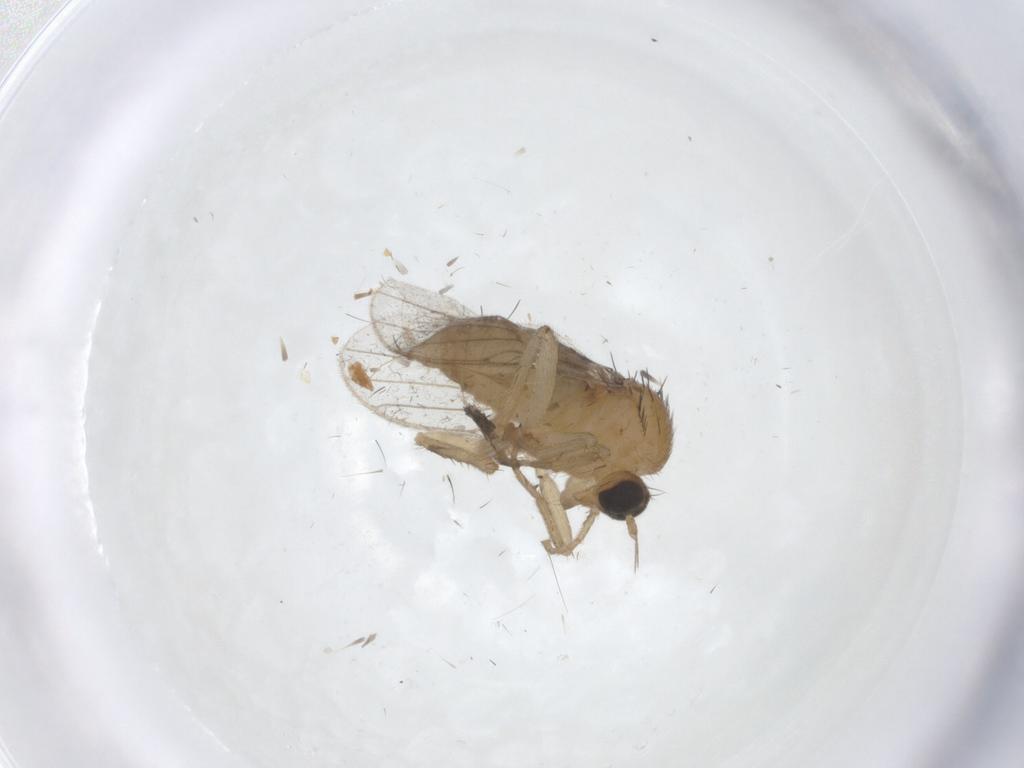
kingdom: Animalia
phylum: Arthropoda
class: Insecta
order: Diptera
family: Hybotidae
